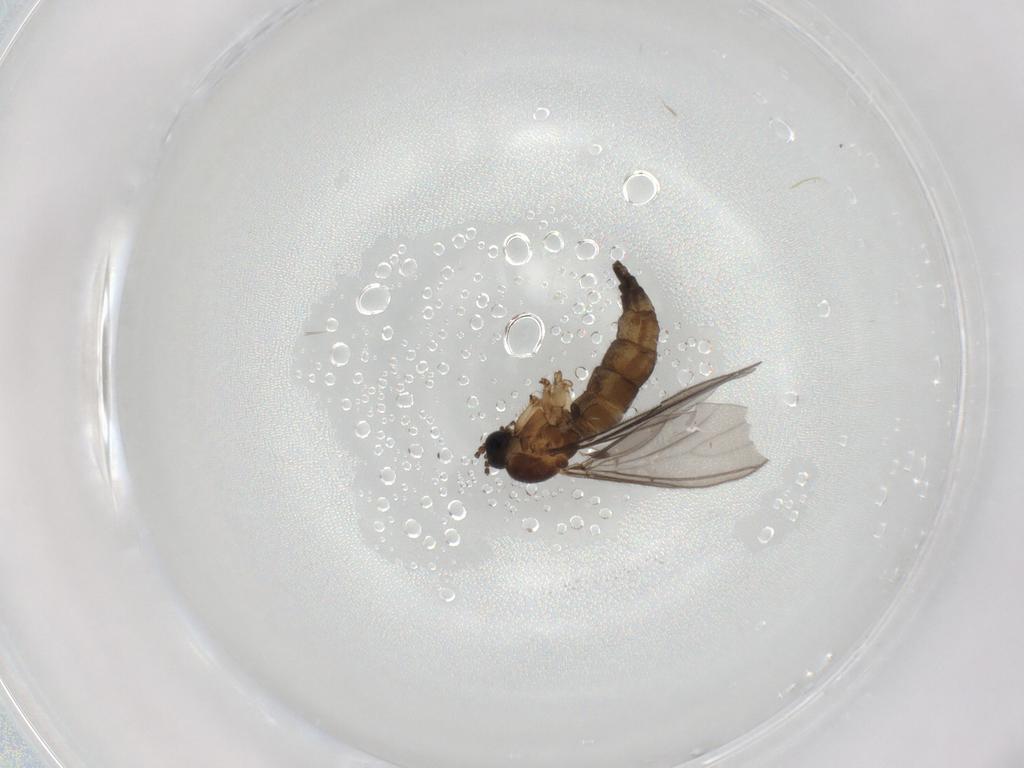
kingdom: Animalia
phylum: Arthropoda
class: Insecta
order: Diptera
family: Sciaridae
